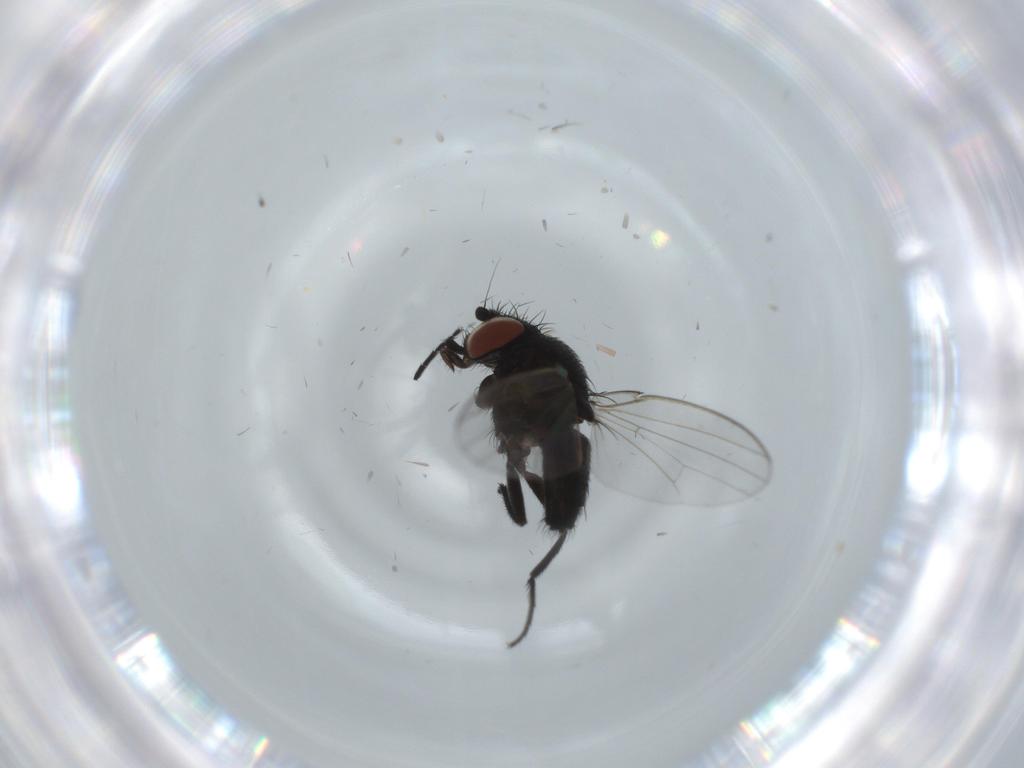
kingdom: Animalia
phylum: Arthropoda
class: Insecta
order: Diptera
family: Milichiidae
